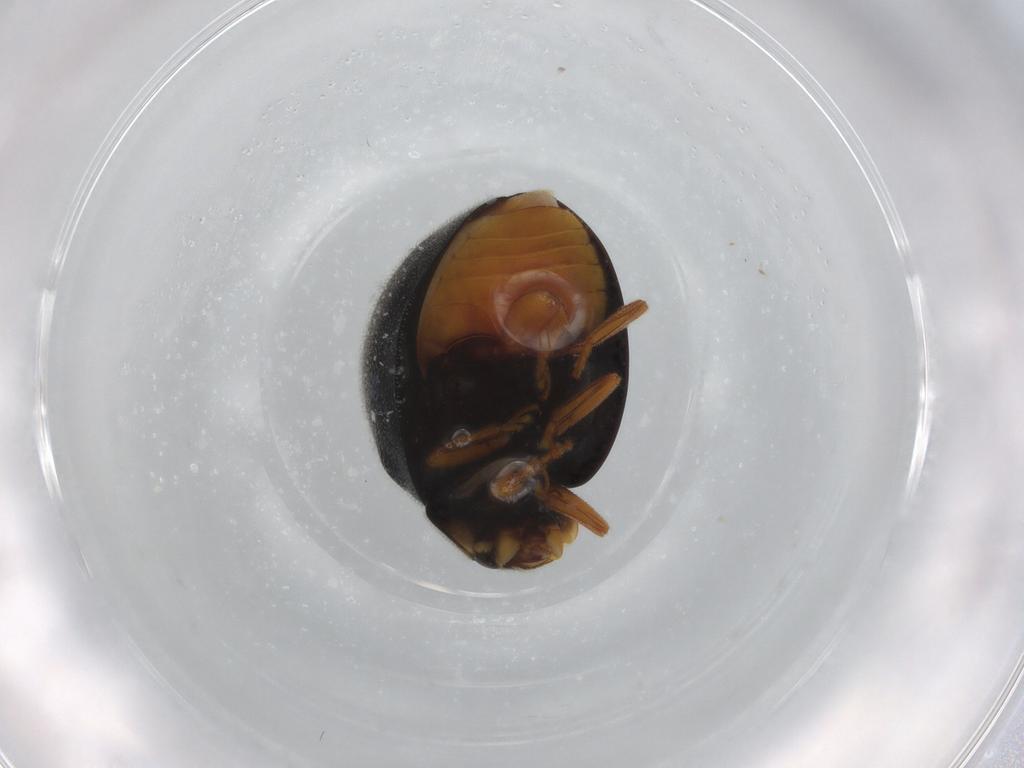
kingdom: Animalia
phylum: Arthropoda
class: Insecta
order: Coleoptera
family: Coccinellidae
